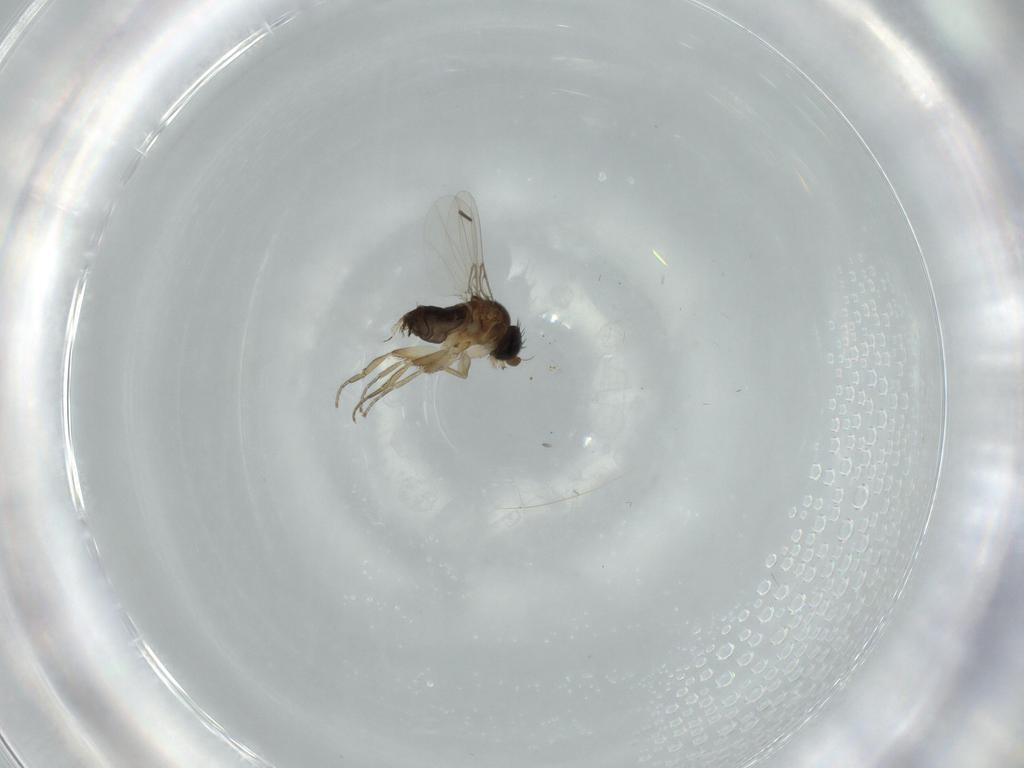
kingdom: Animalia
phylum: Arthropoda
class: Insecta
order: Diptera
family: Phoridae
